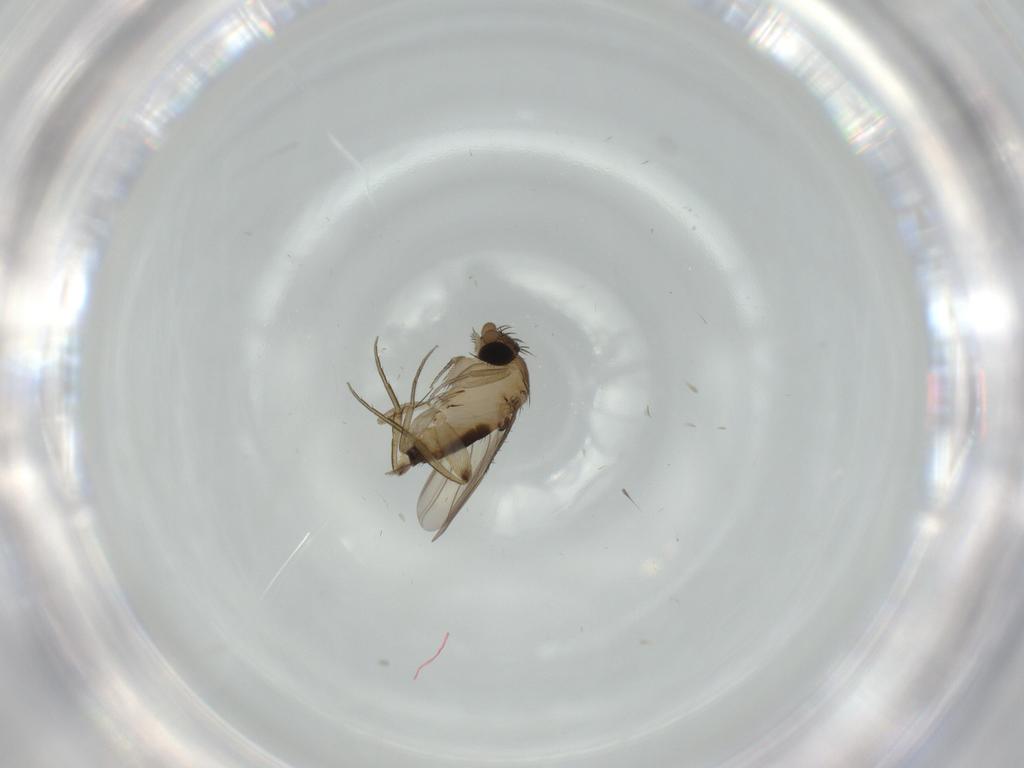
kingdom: Animalia
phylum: Arthropoda
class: Insecta
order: Diptera
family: Phoridae
